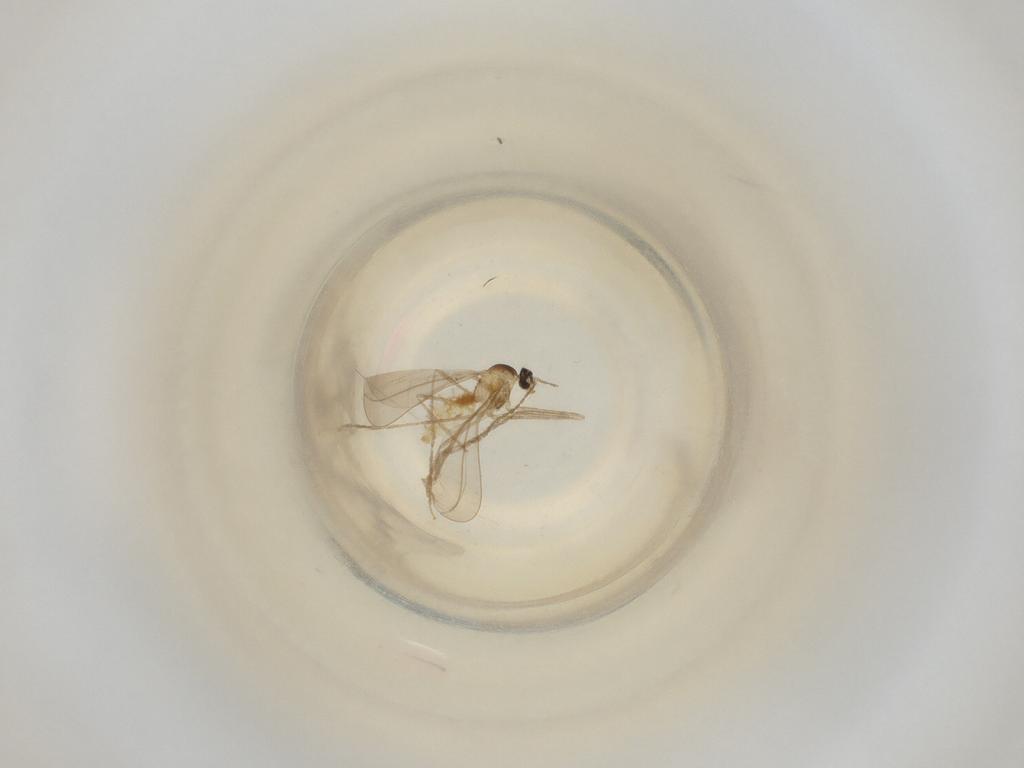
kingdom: Animalia
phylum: Arthropoda
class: Insecta
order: Diptera
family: Cecidomyiidae
